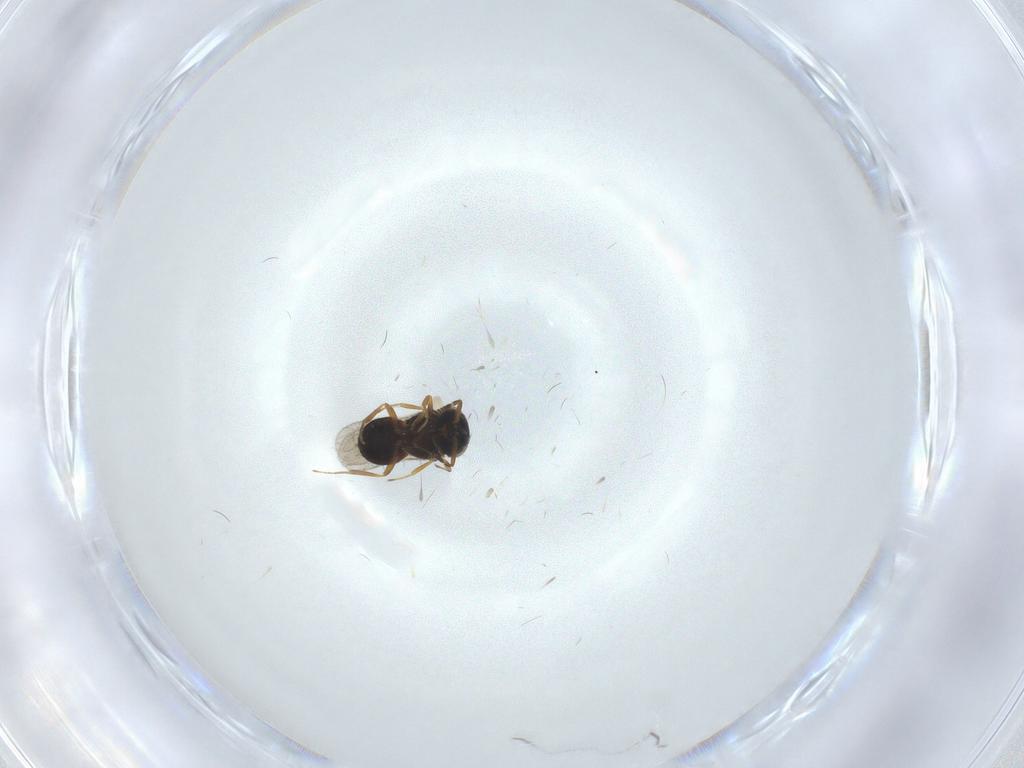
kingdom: Animalia
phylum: Arthropoda
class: Insecta
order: Hymenoptera
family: Scelionidae
